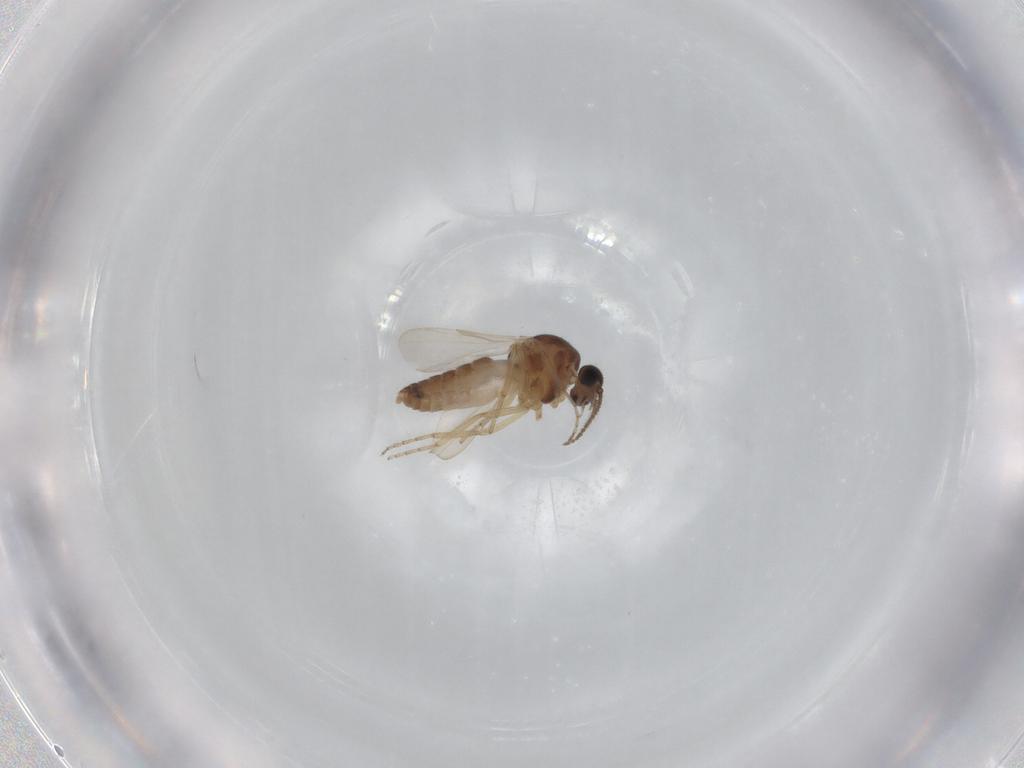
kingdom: Animalia
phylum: Arthropoda
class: Insecta
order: Diptera
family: Ceratopogonidae
